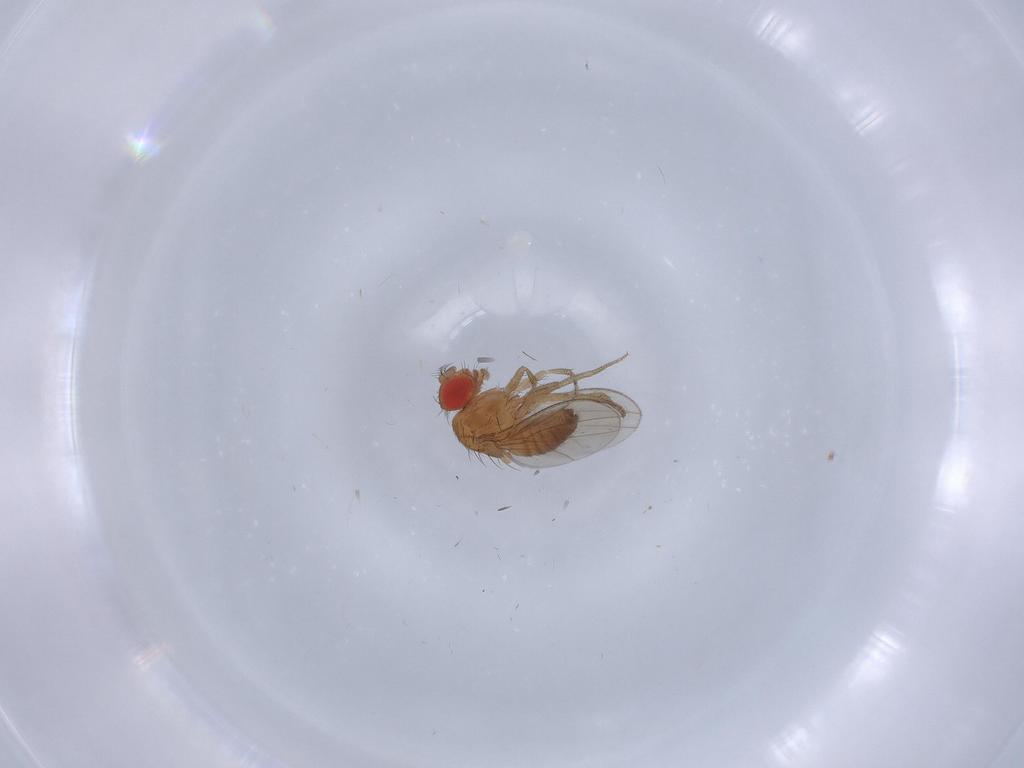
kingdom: Animalia
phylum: Arthropoda
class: Insecta
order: Diptera
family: Drosophilidae
